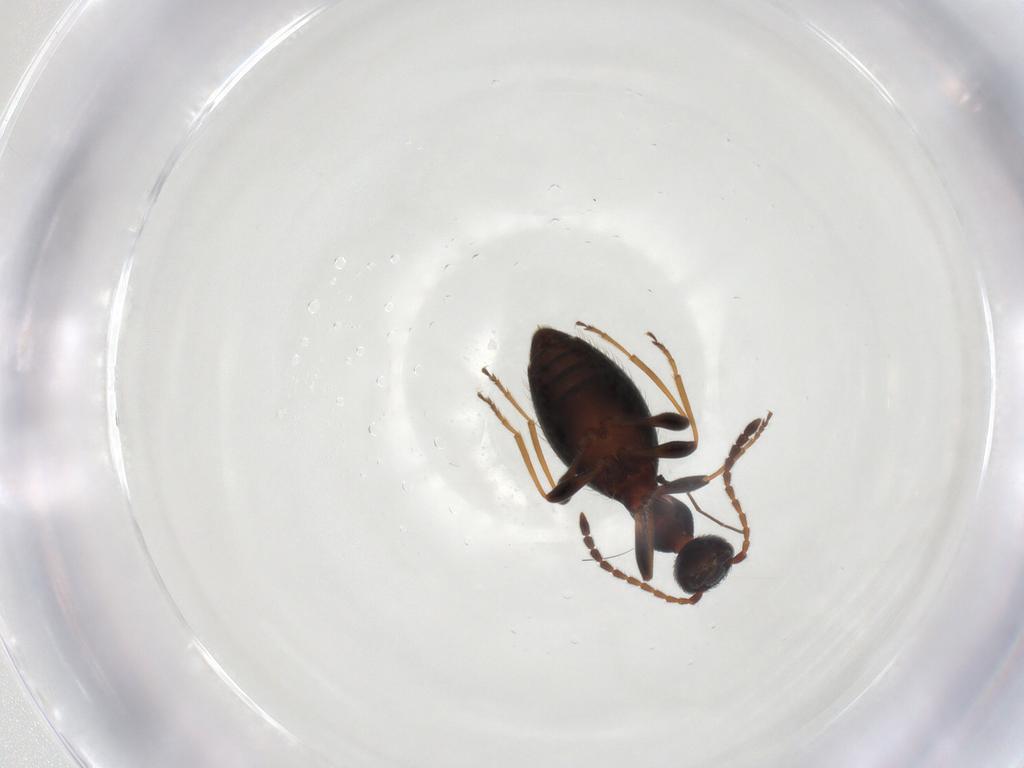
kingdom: Animalia
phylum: Arthropoda
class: Insecta
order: Coleoptera
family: Anthicidae
